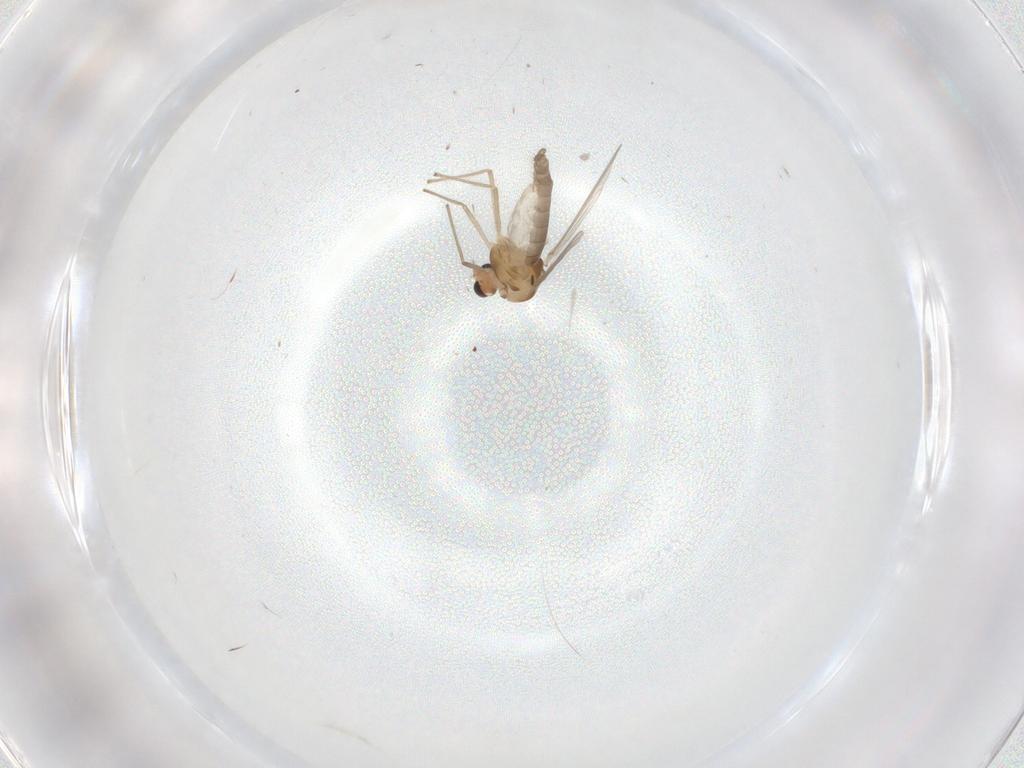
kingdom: Animalia
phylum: Arthropoda
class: Insecta
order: Diptera
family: Chironomidae
